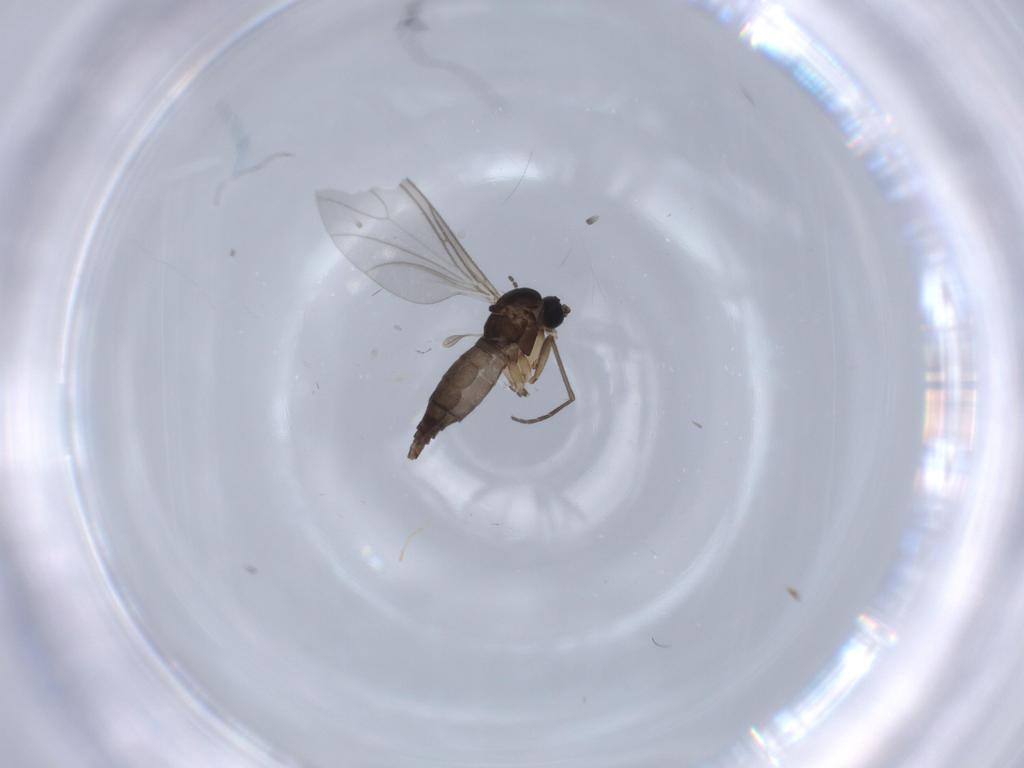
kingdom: Animalia
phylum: Arthropoda
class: Insecta
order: Diptera
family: Sciaridae
